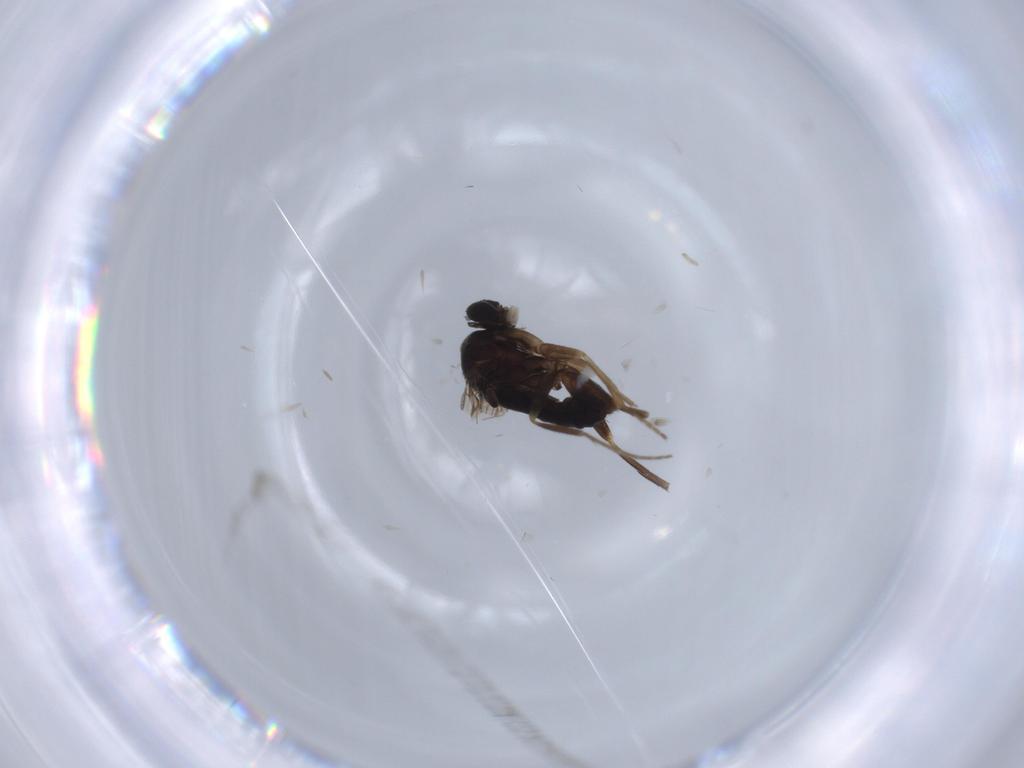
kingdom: Animalia
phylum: Arthropoda
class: Insecta
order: Diptera
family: Phoridae
